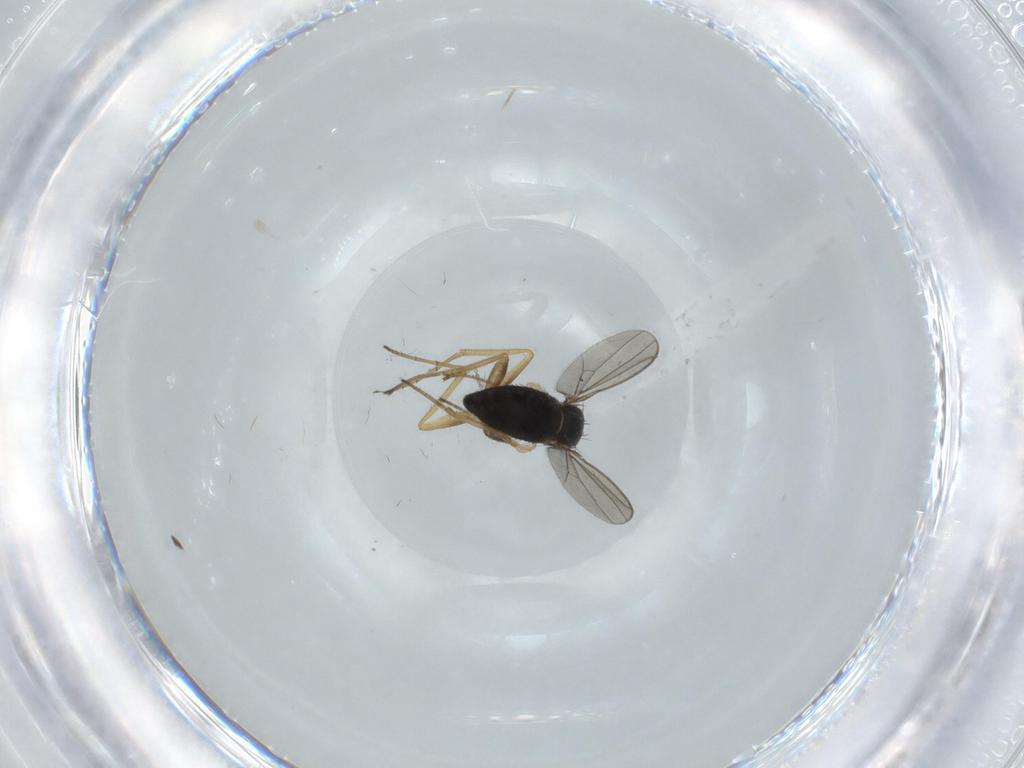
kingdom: Animalia
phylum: Arthropoda
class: Insecta
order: Diptera
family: Dolichopodidae
